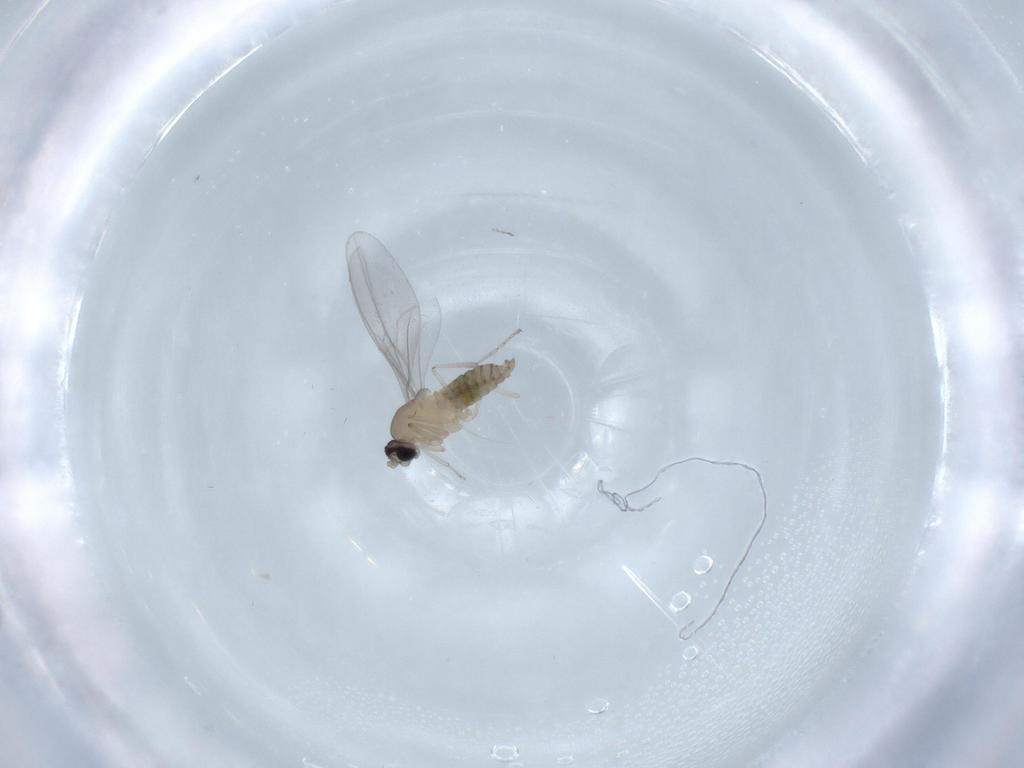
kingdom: Animalia
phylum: Arthropoda
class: Insecta
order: Diptera
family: Cecidomyiidae
